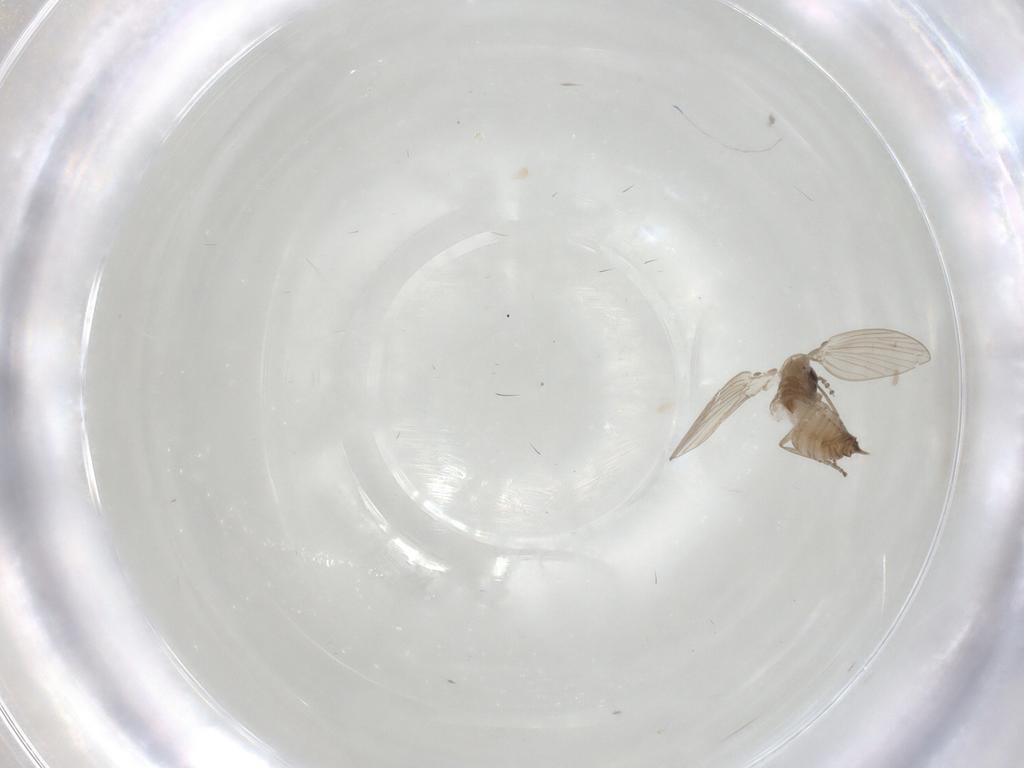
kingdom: Animalia
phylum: Arthropoda
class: Insecta
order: Diptera
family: Psychodidae
